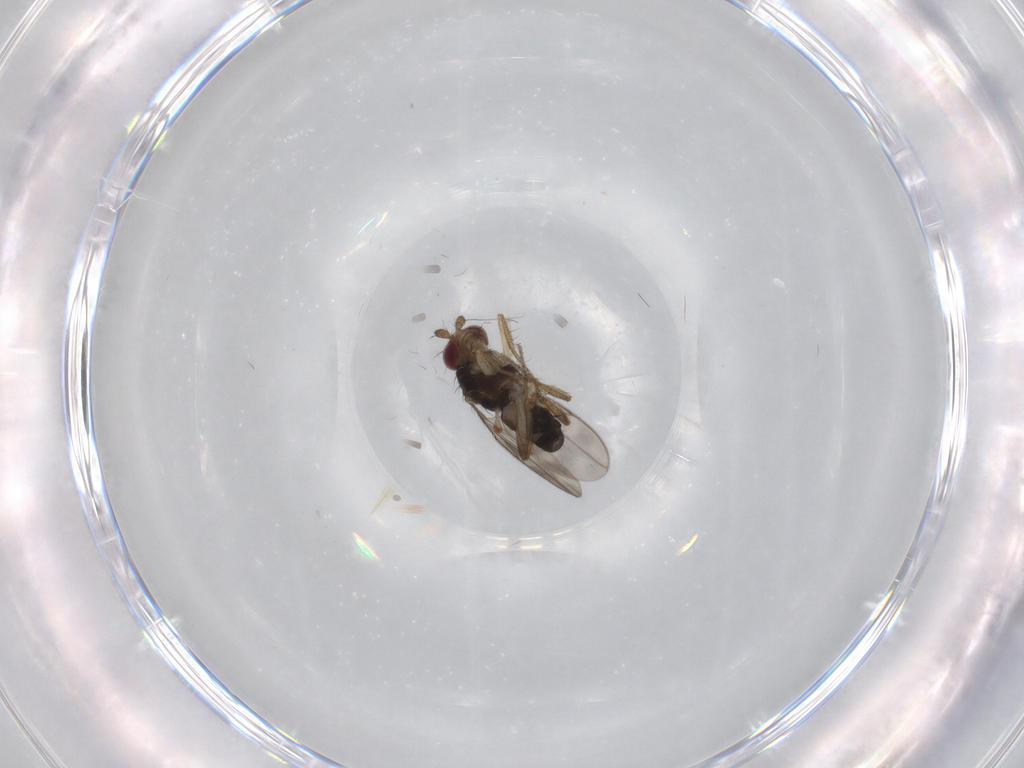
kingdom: Animalia
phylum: Arthropoda
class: Insecta
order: Diptera
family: Sphaeroceridae
